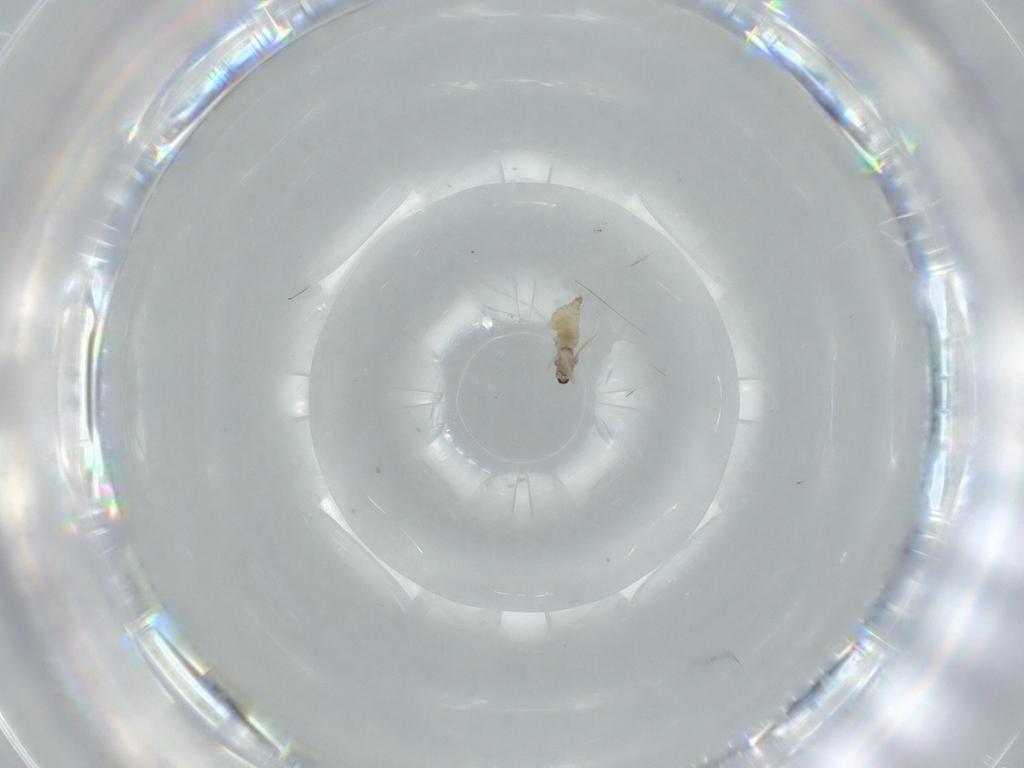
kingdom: Animalia
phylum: Arthropoda
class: Insecta
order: Diptera
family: Cecidomyiidae
